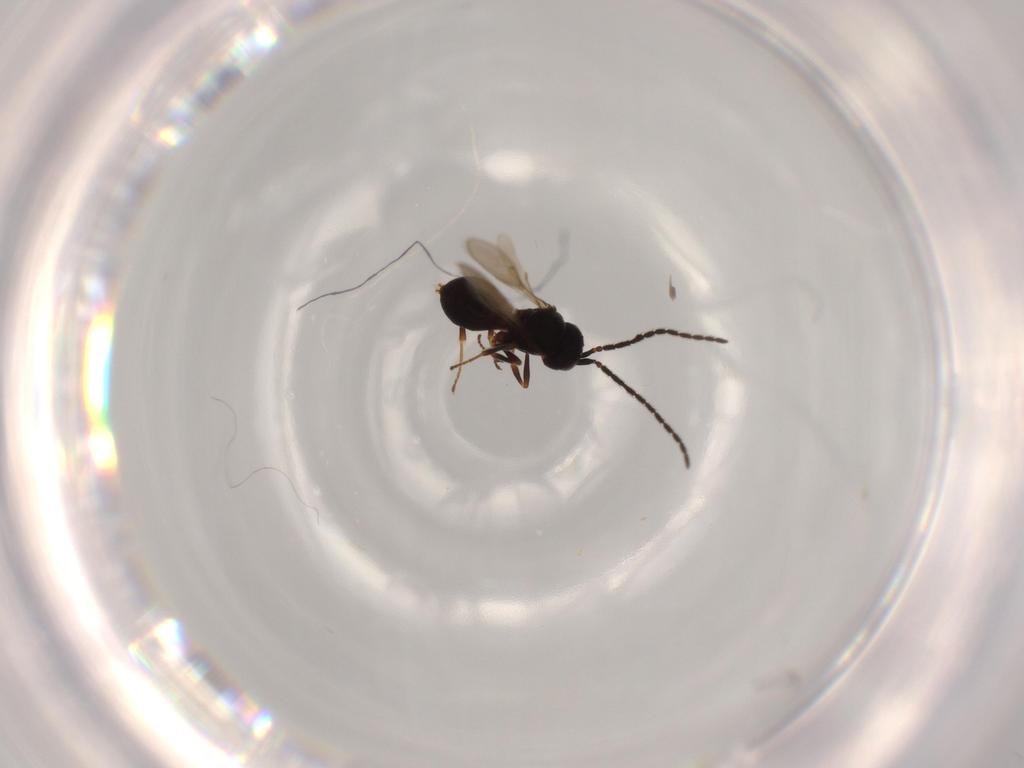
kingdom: Animalia
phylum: Arthropoda
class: Insecta
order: Hymenoptera
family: Scelionidae
